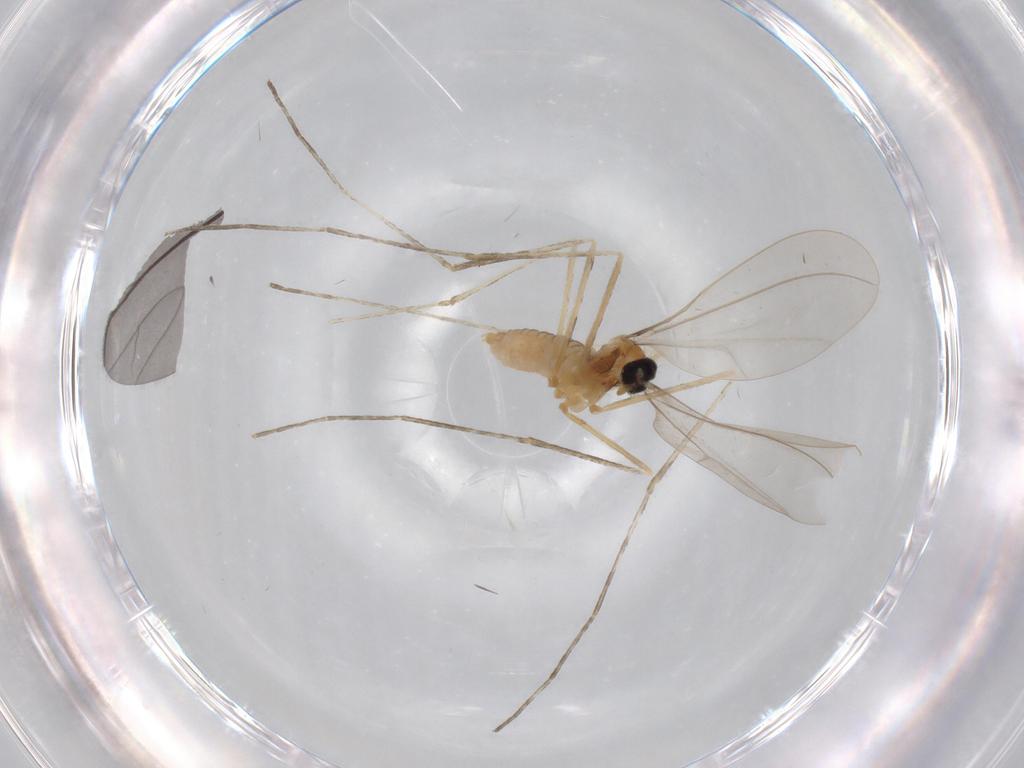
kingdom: Animalia
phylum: Arthropoda
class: Insecta
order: Diptera
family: Cecidomyiidae
